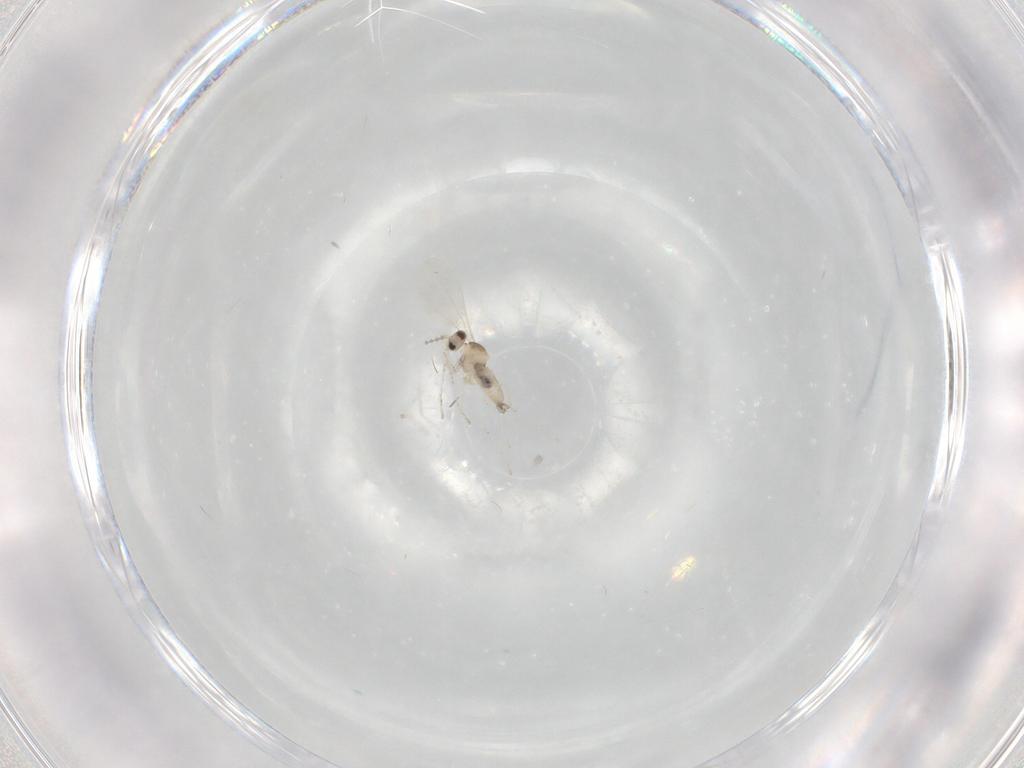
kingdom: Animalia
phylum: Arthropoda
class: Insecta
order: Diptera
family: Cecidomyiidae
